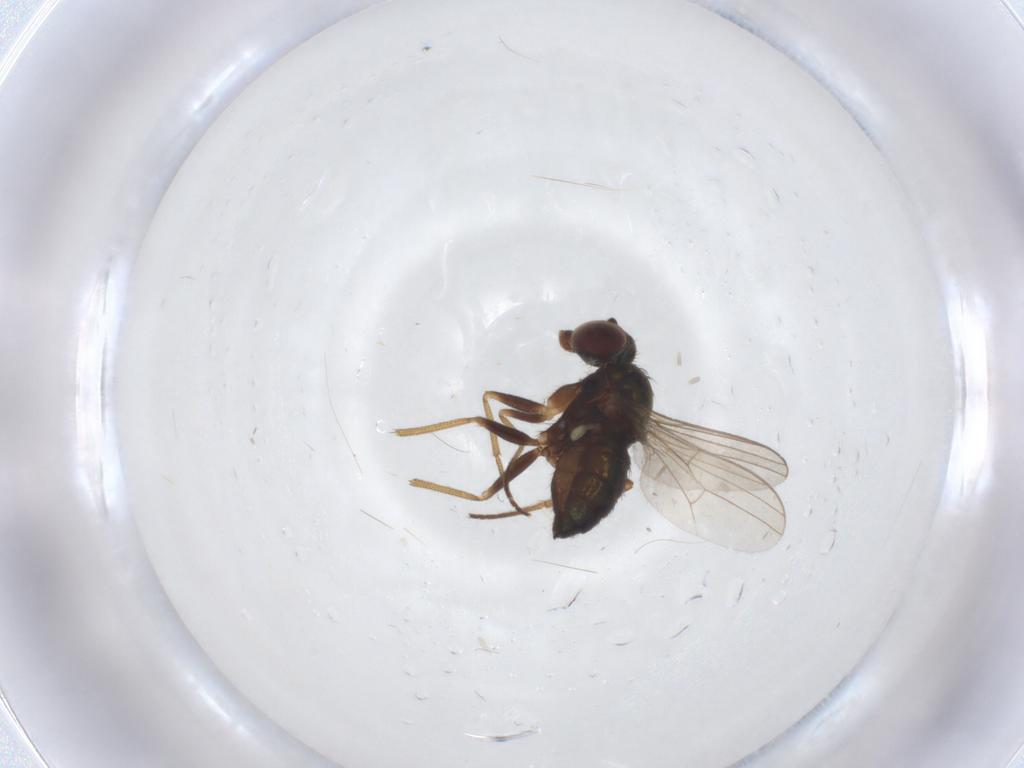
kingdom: Animalia
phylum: Arthropoda
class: Insecta
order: Diptera
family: Dolichopodidae
